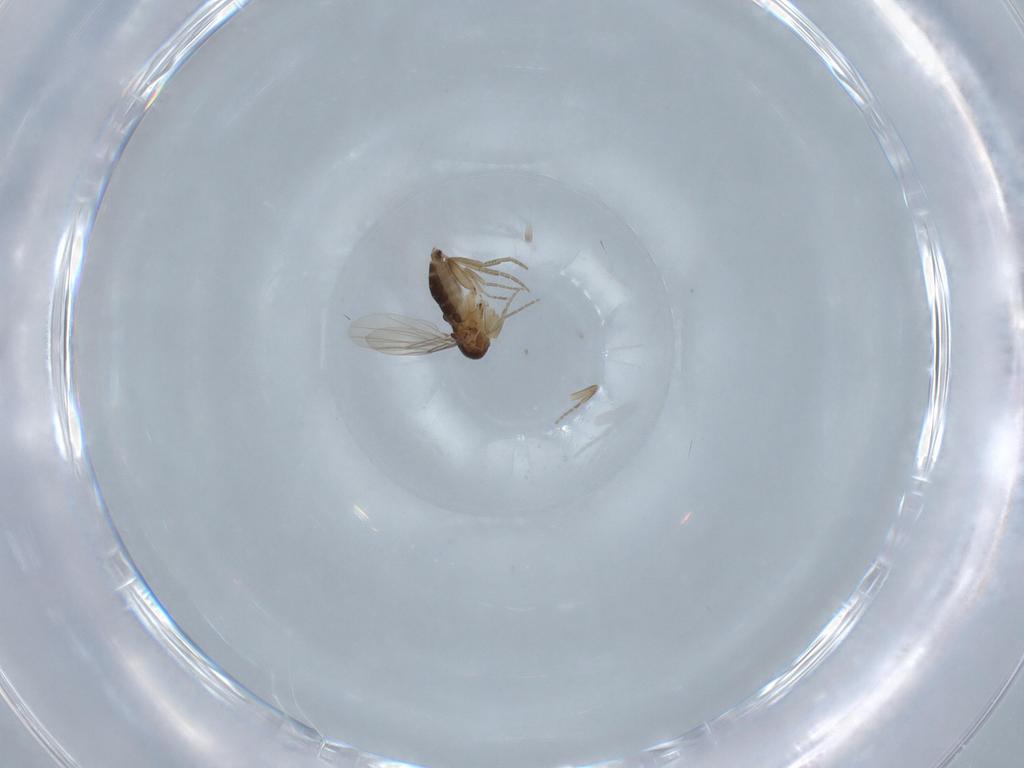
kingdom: Animalia
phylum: Arthropoda
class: Insecta
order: Diptera
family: Phoridae
